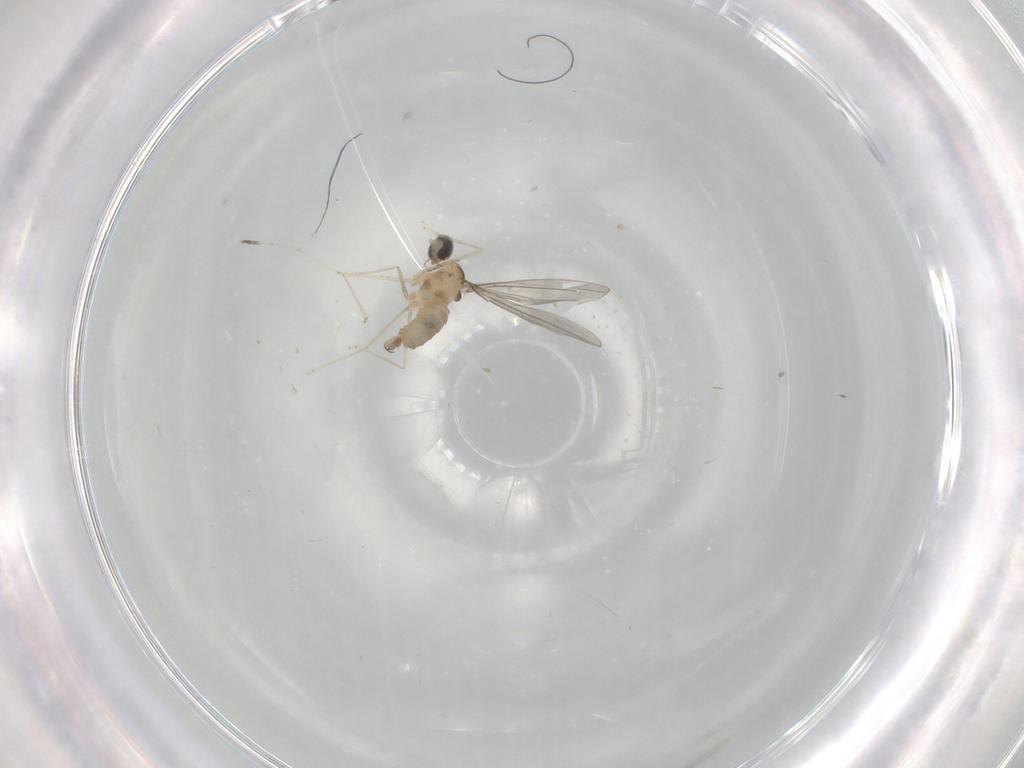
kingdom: Animalia
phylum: Arthropoda
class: Insecta
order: Diptera
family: Cecidomyiidae
